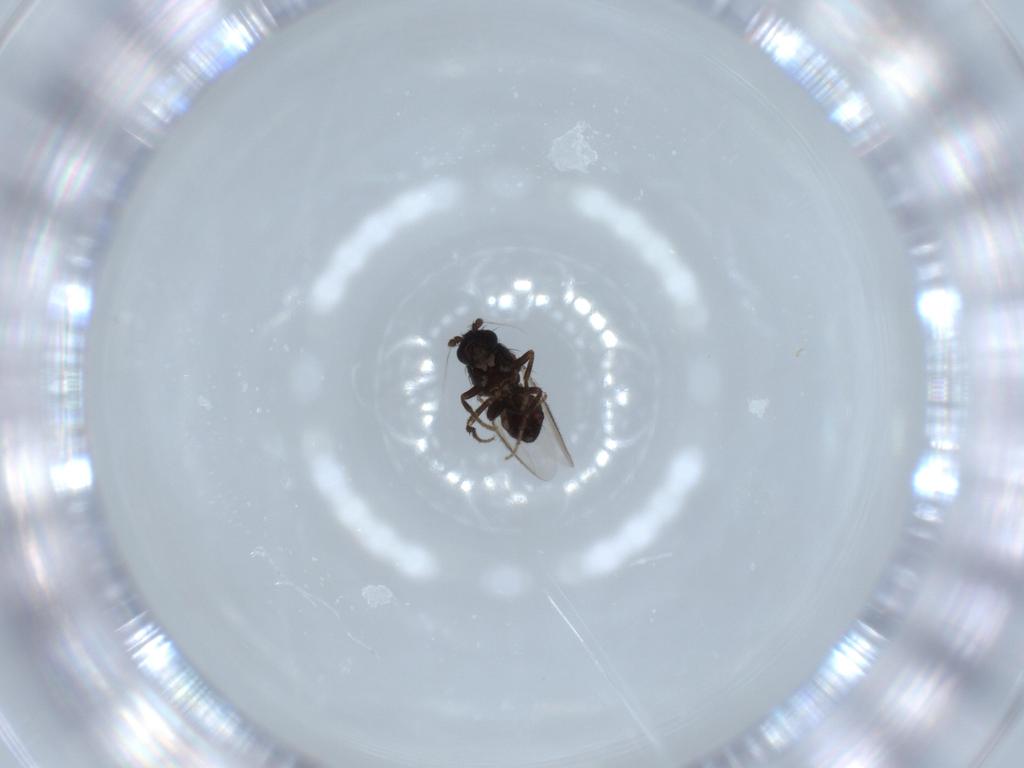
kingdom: Animalia
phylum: Arthropoda
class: Insecta
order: Diptera
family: Sphaeroceridae
